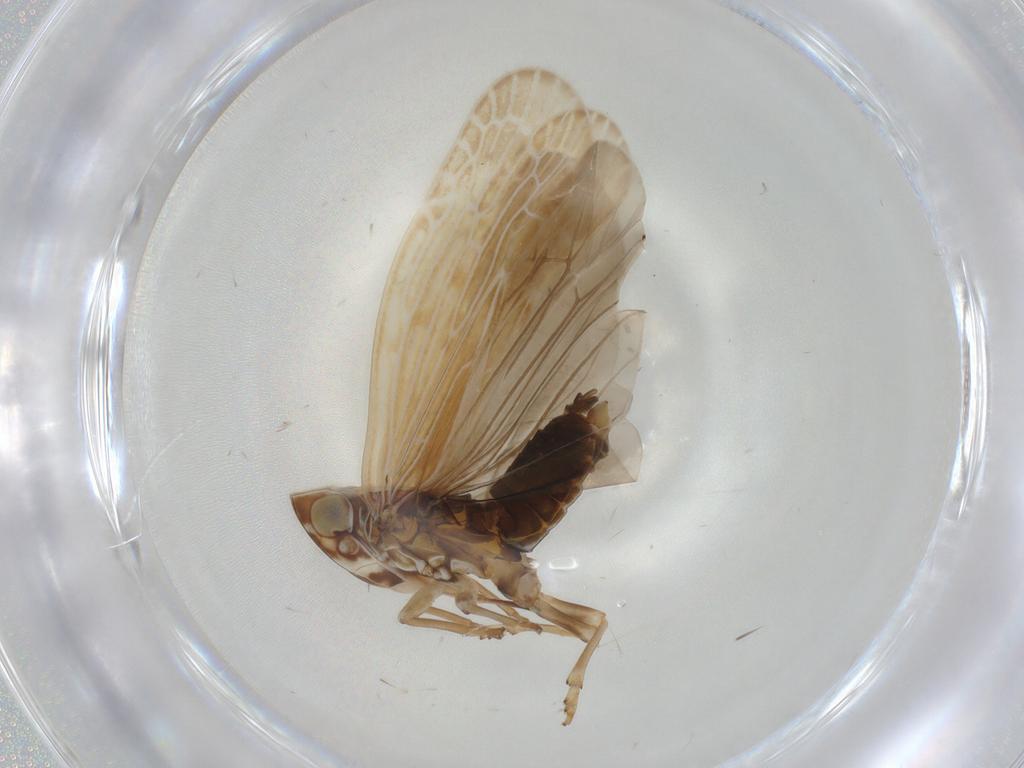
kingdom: Animalia
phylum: Arthropoda
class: Insecta
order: Hemiptera
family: Achilidae
